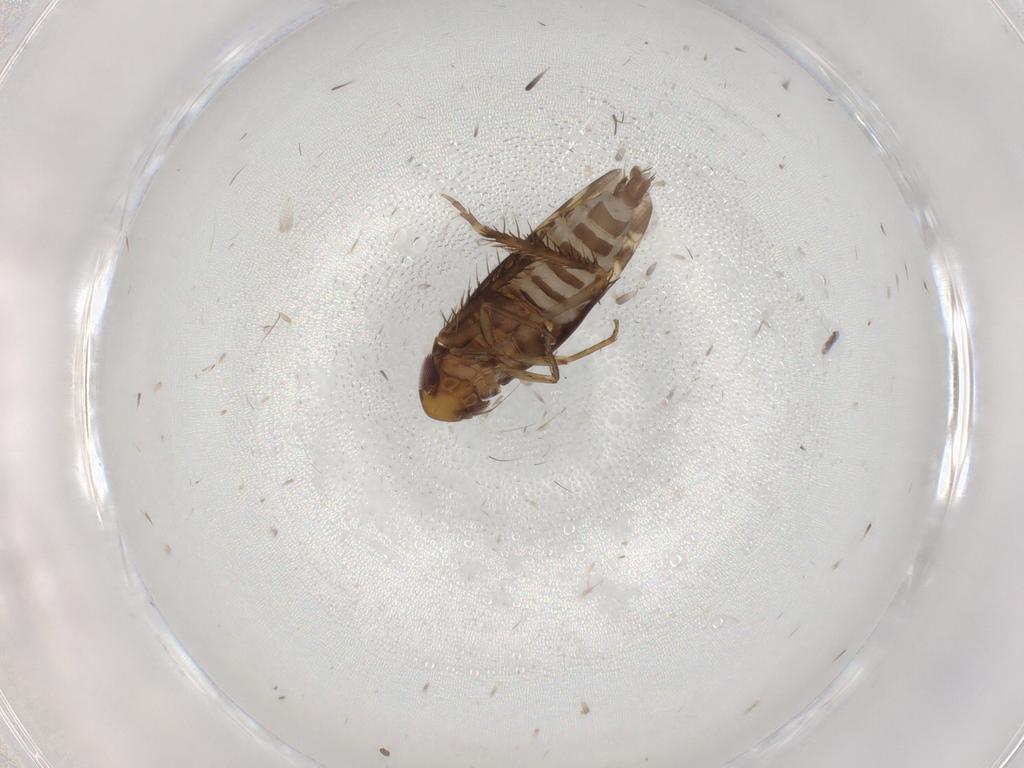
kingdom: Animalia
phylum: Arthropoda
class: Insecta
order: Hemiptera
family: Cicadellidae
